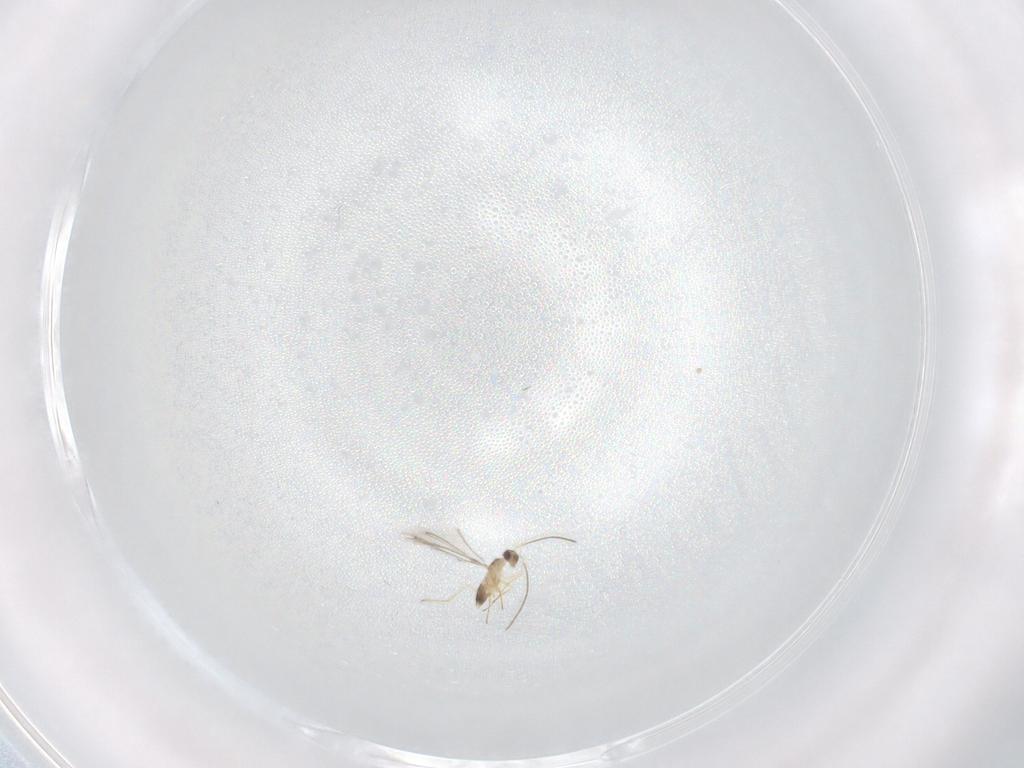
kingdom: Animalia
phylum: Arthropoda
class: Insecta
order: Hymenoptera
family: Mymaridae
